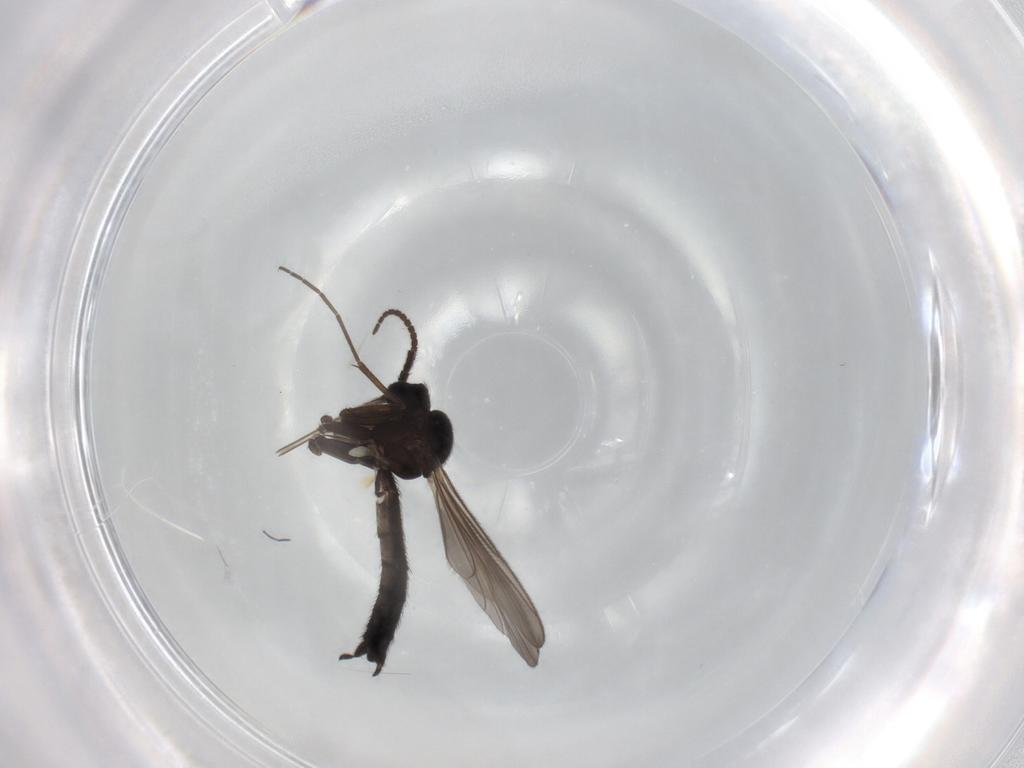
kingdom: Animalia
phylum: Arthropoda
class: Insecta
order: Diptera
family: Keroplatidae
